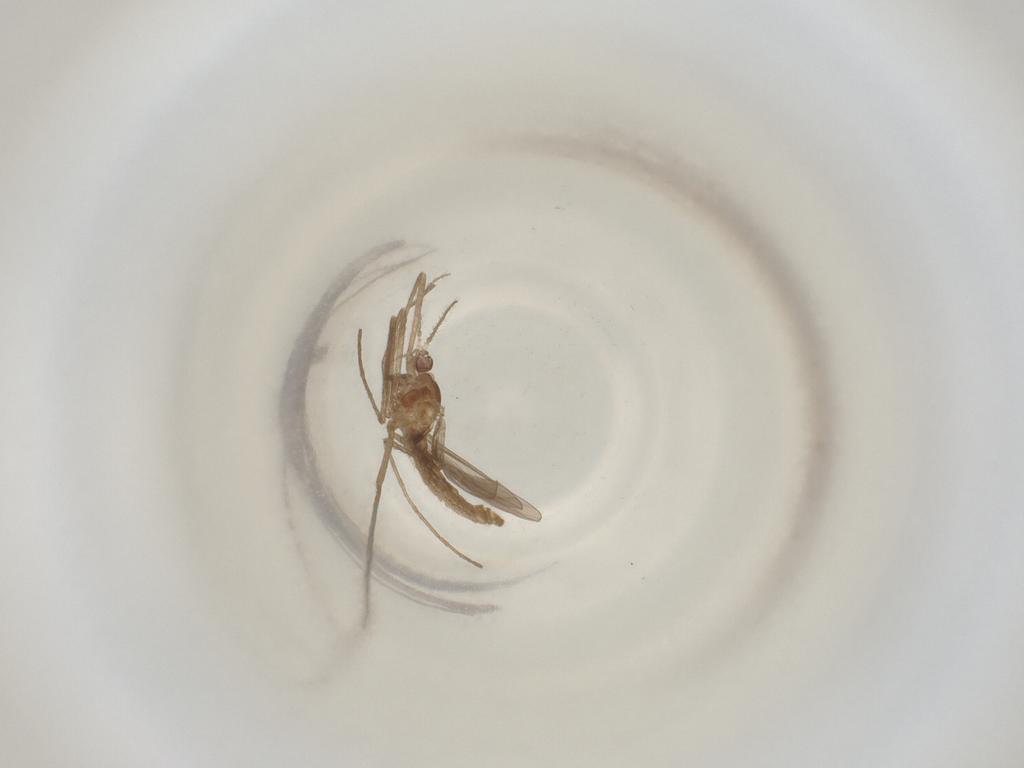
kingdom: Animalia
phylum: Arthropoda
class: Insecta
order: Diptera
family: Cecidomyiidae
